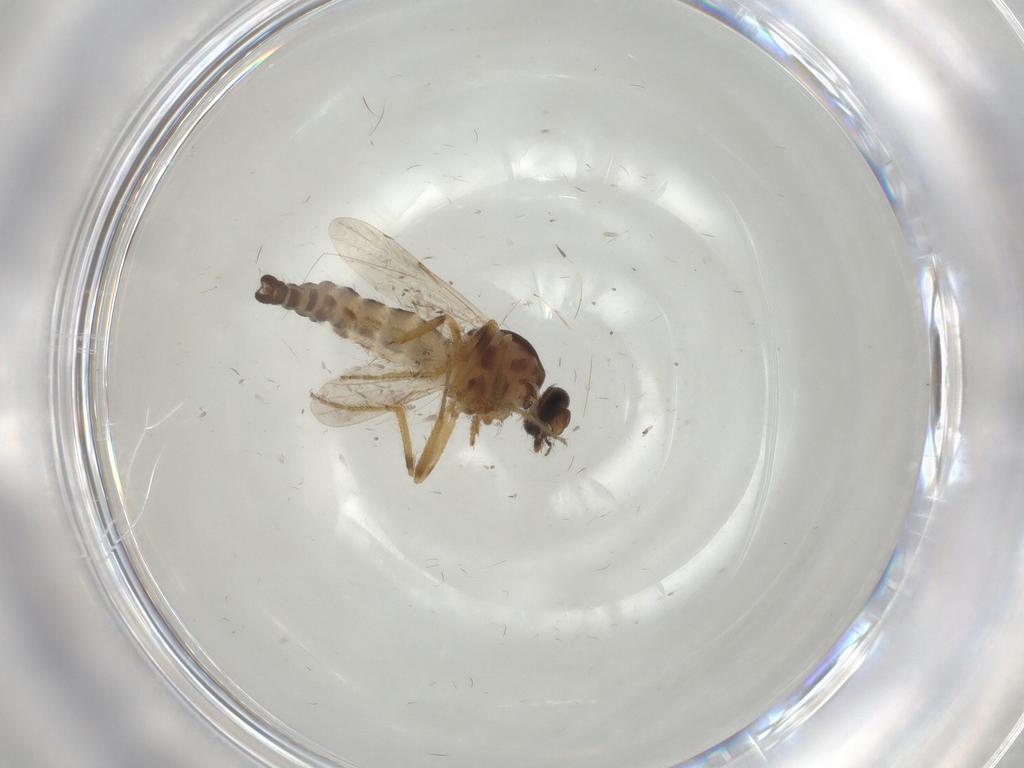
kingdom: Animalia
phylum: Arthropoda
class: Insecta
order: Diptera
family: Ceratopogonidae
